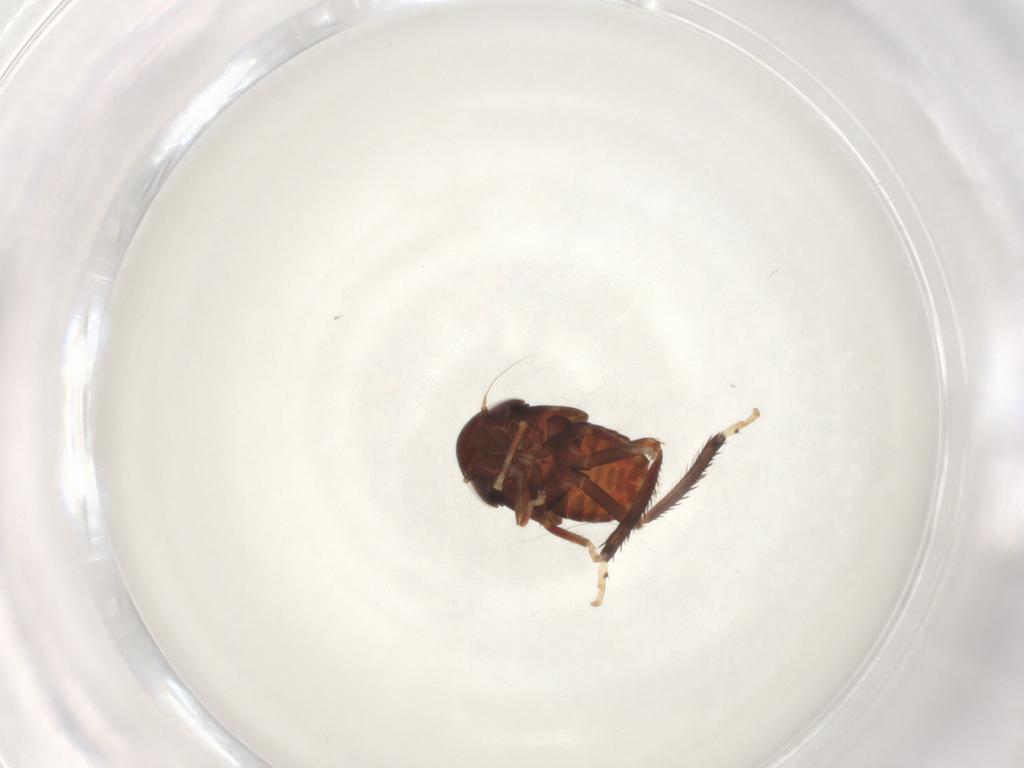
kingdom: Animalia
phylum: Arthropoda
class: Insecta
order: Hemiptera
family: Cicadellidae
